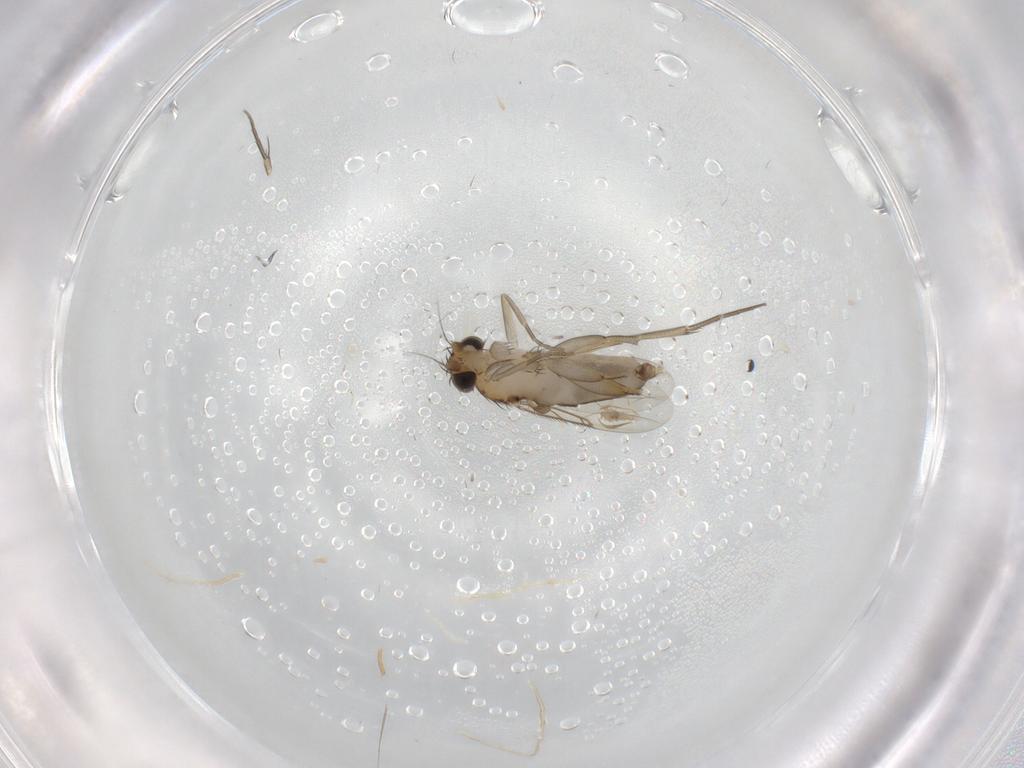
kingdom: Animalia
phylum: Arthropoda
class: Insecta
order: Diptera
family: Phoridae
